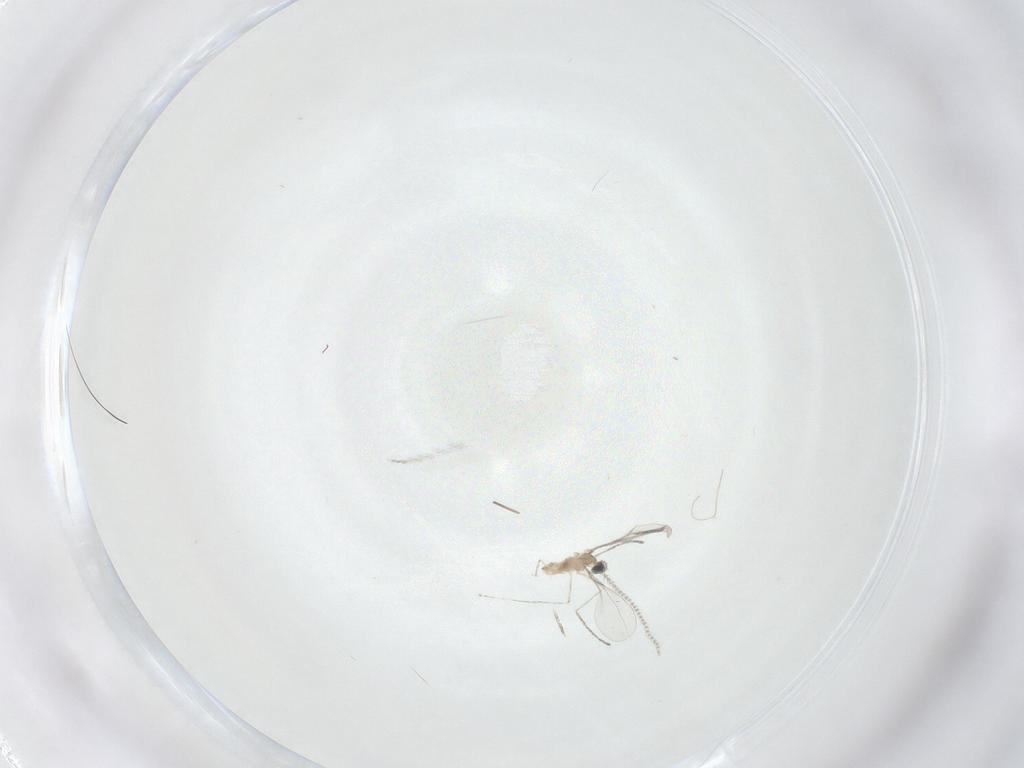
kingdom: Animalia
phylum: Arthropoda
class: Insecta
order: Diptera
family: Cecidomyiidae
